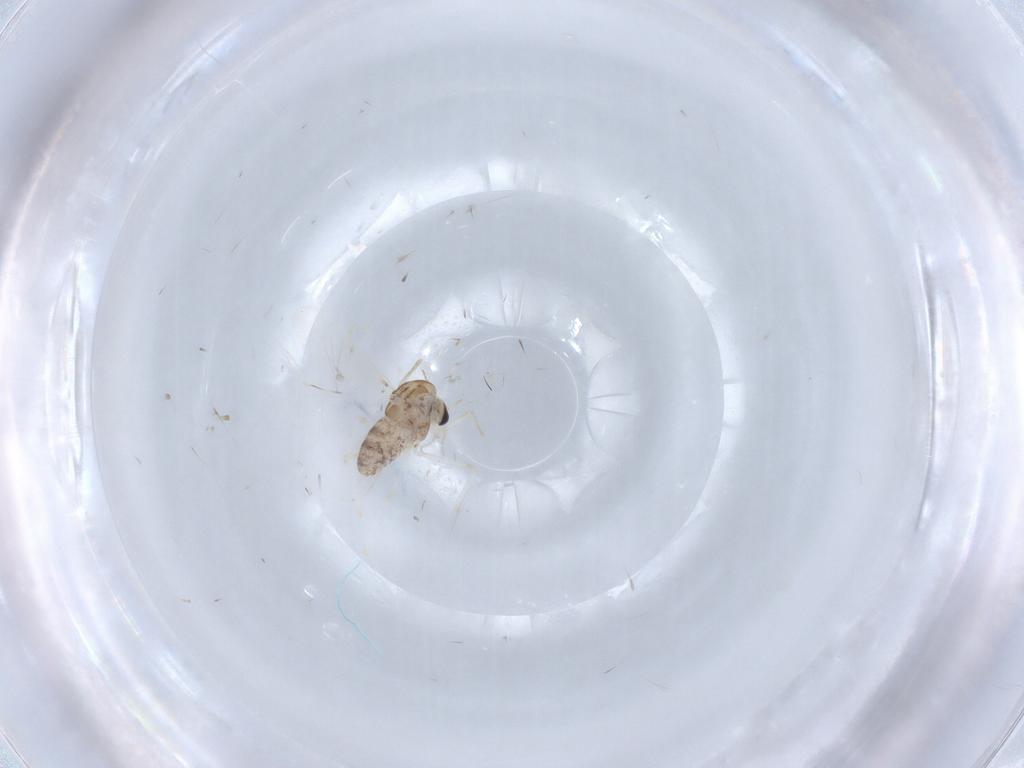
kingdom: Animalia
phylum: Arthropoda
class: Insecta
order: Diptera
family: Chironomidae
